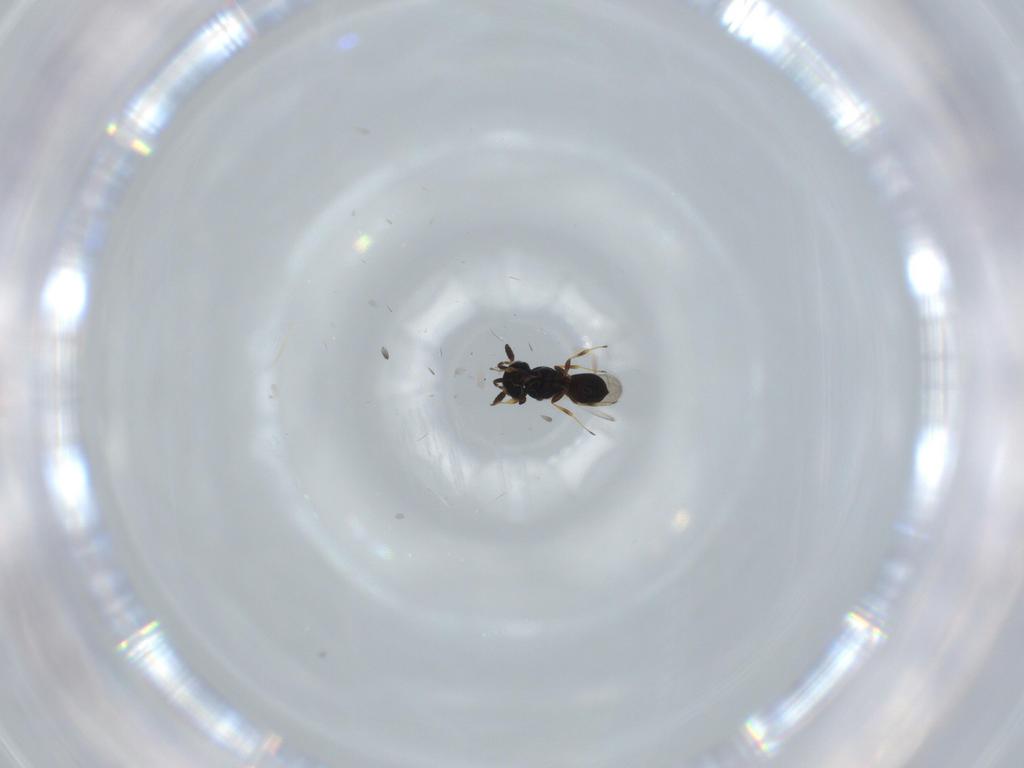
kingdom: Animalia
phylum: Arthropoda
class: Insecta
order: Hymenoptera
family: Scelionidae
